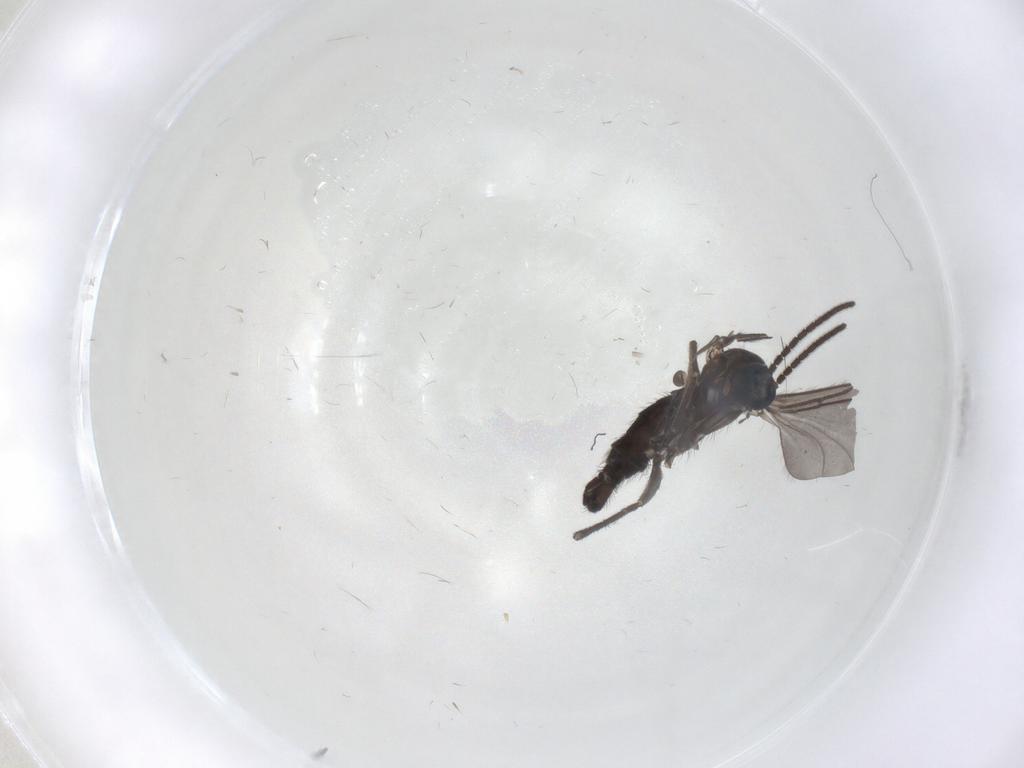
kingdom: Animalia
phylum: Arthropoda
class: Insecta
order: Diptera
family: Sciaridae
